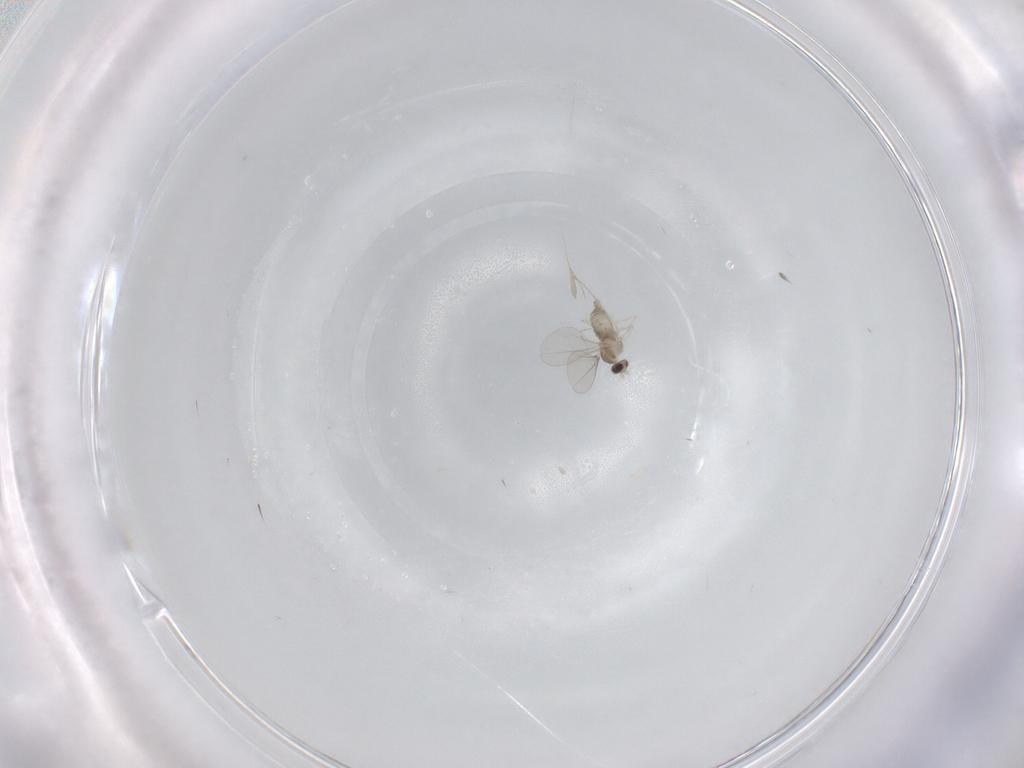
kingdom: Animalia
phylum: Arthropoda
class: Insecta
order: Diptera
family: Cecidomyiidae
